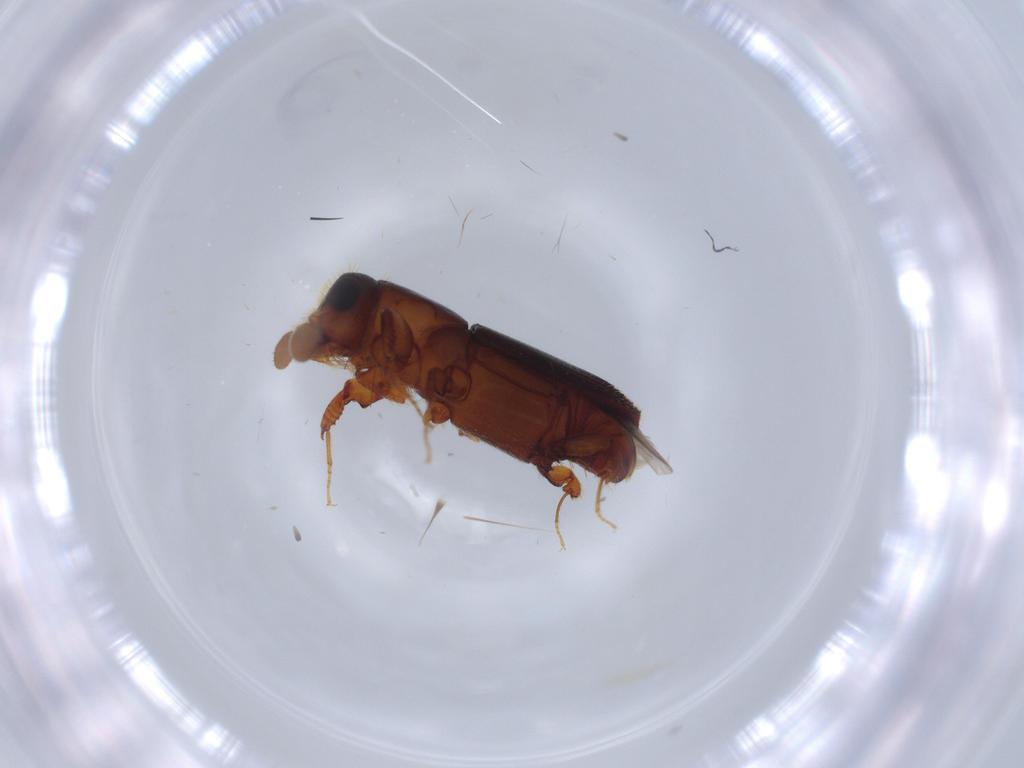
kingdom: Animalia
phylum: Arthropoda
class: Insecta
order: Coleoptera
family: Curculionidae
